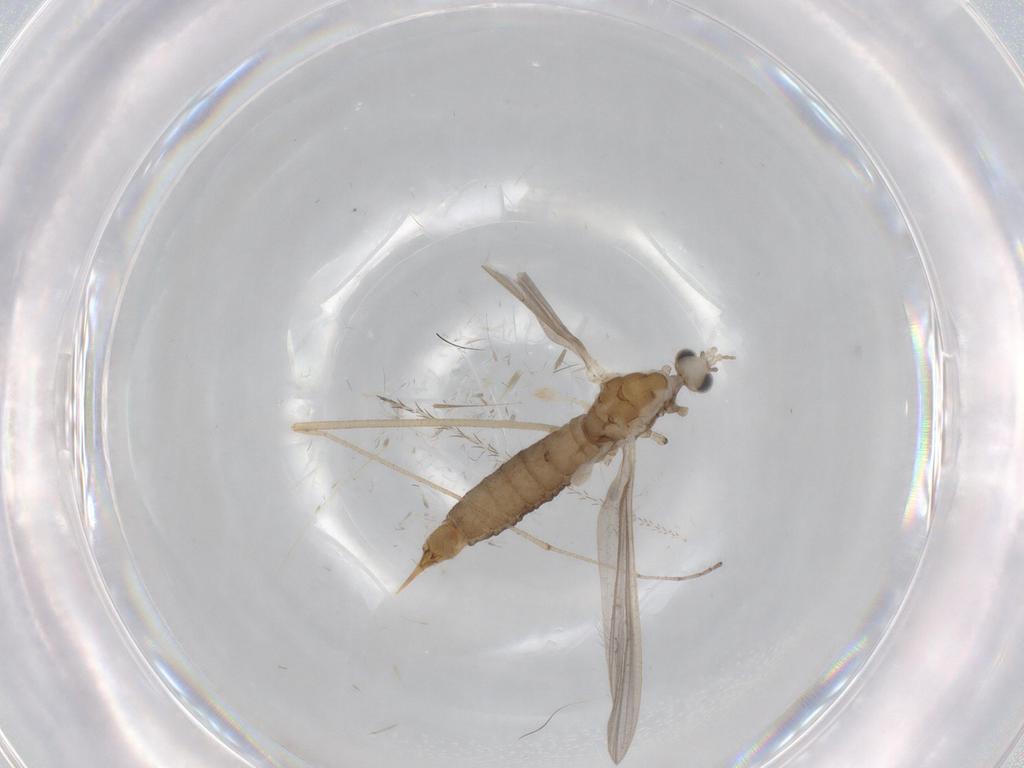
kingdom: Animalia
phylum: Arthropoda
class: Insecta
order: Diptera
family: Limoniidae
